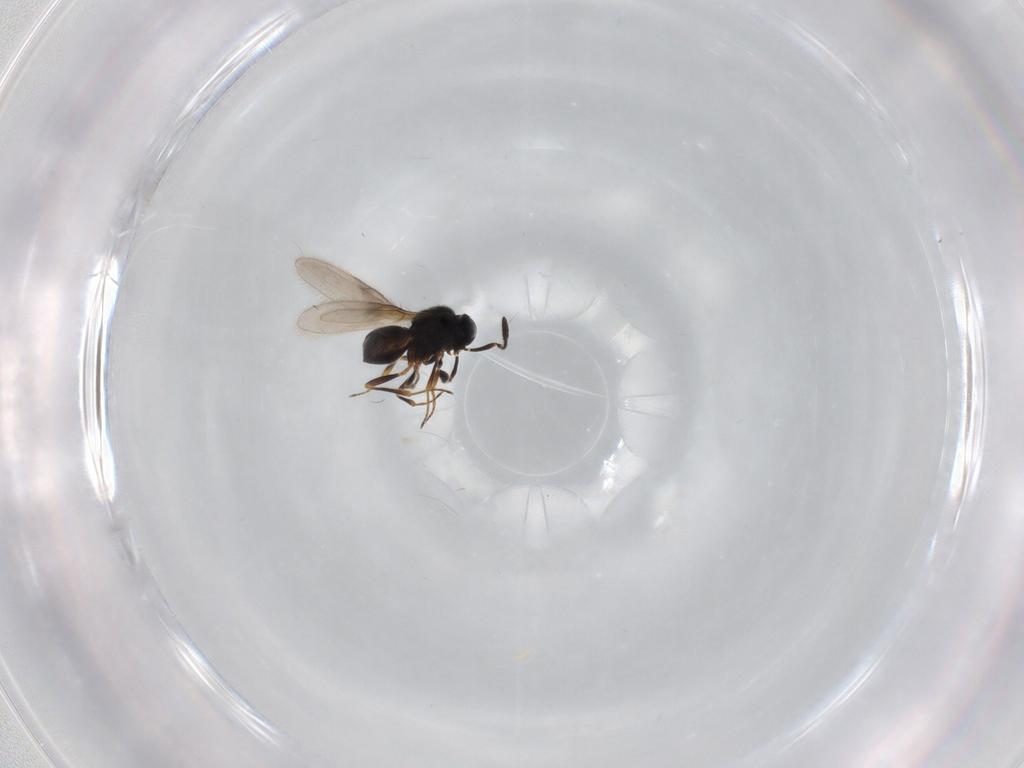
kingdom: Animalia
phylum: Arthropoda
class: Insecta
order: Hymenoptera
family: Scelionidae
